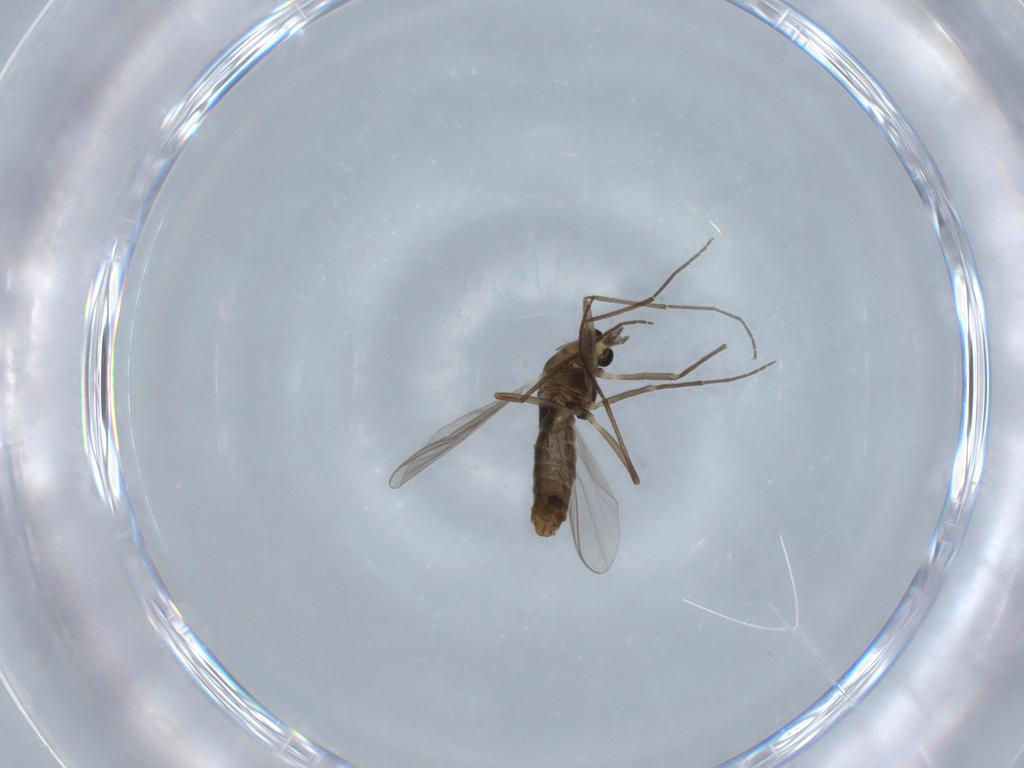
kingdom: Animalia
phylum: Arthropoda
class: Insecta
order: Diptera
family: Chironomidae
